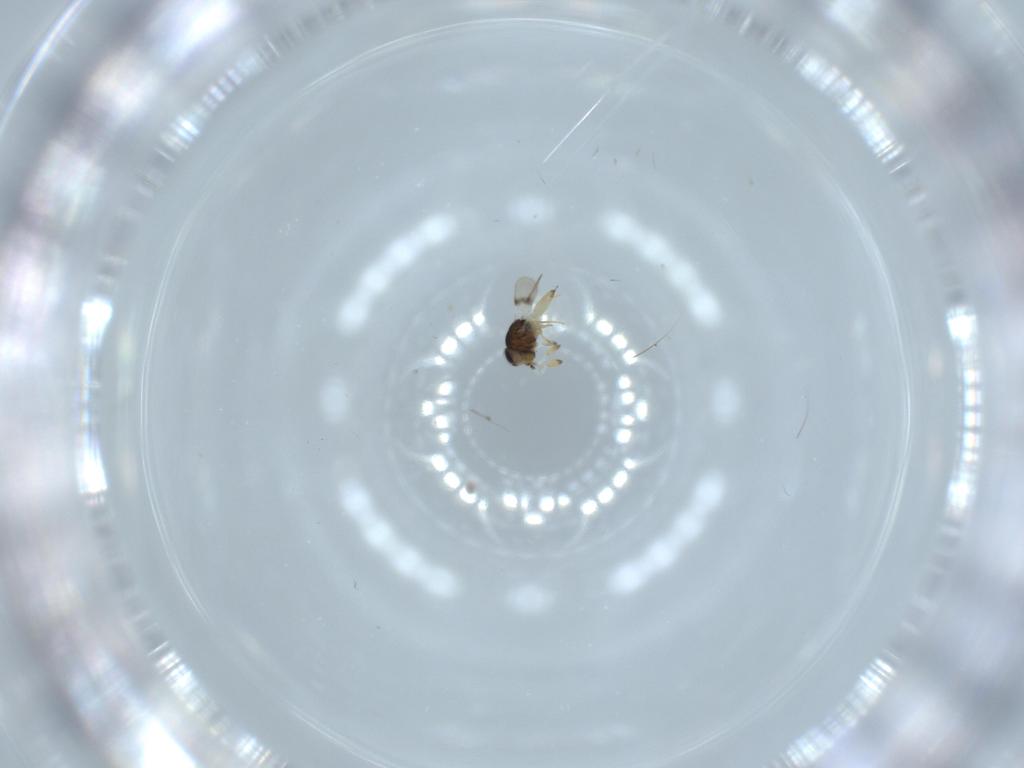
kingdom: Animalia
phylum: Arthropoda
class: Insecta
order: Hymenoptera
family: Scelionidae
